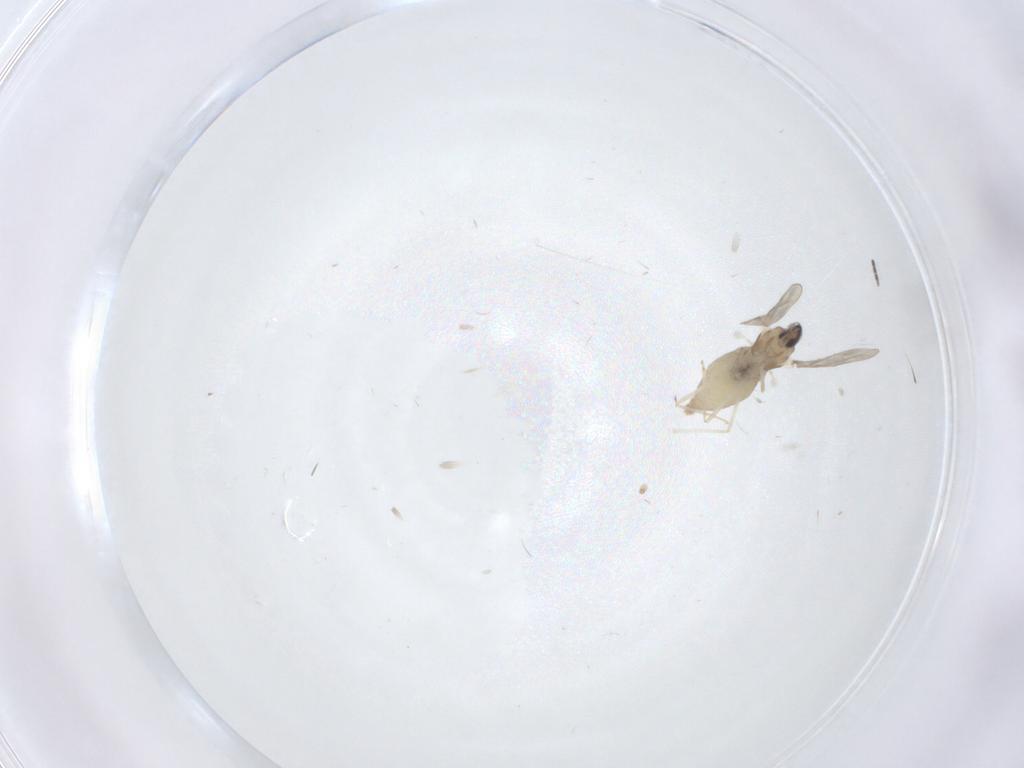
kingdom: Animalia
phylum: Arthropoda
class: Insecta
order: Diptera
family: Cecidomyiidae
